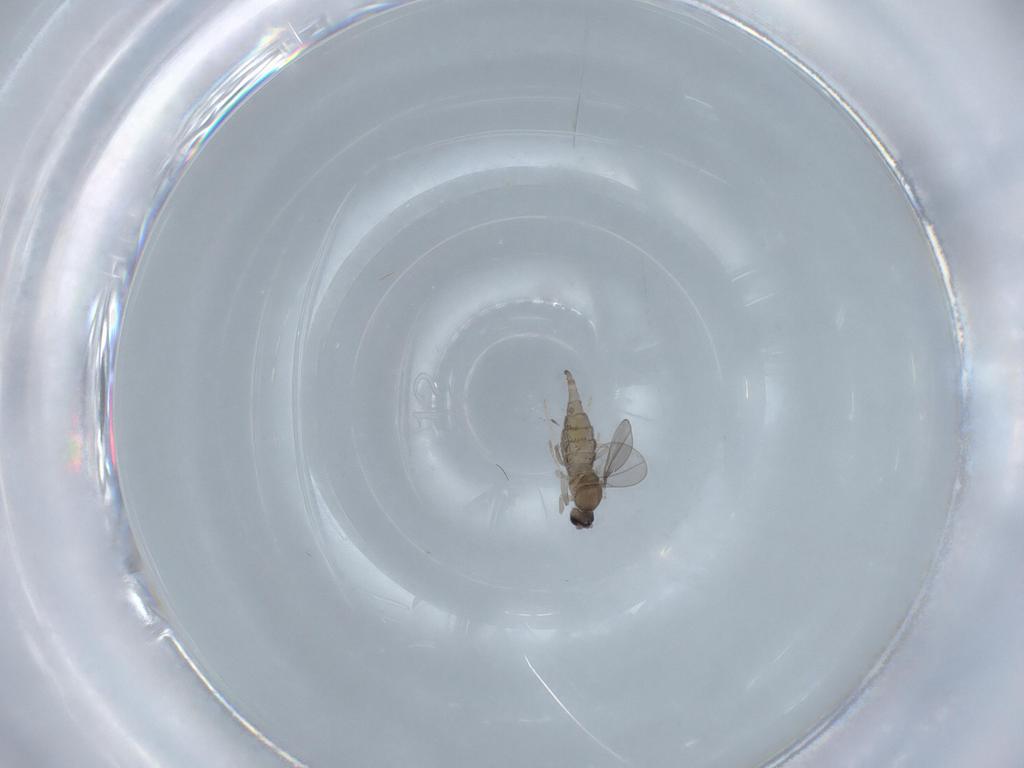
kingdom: Animalia
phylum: Arthropoda
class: Insecta
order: Diptera
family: Cecidomyiidae
